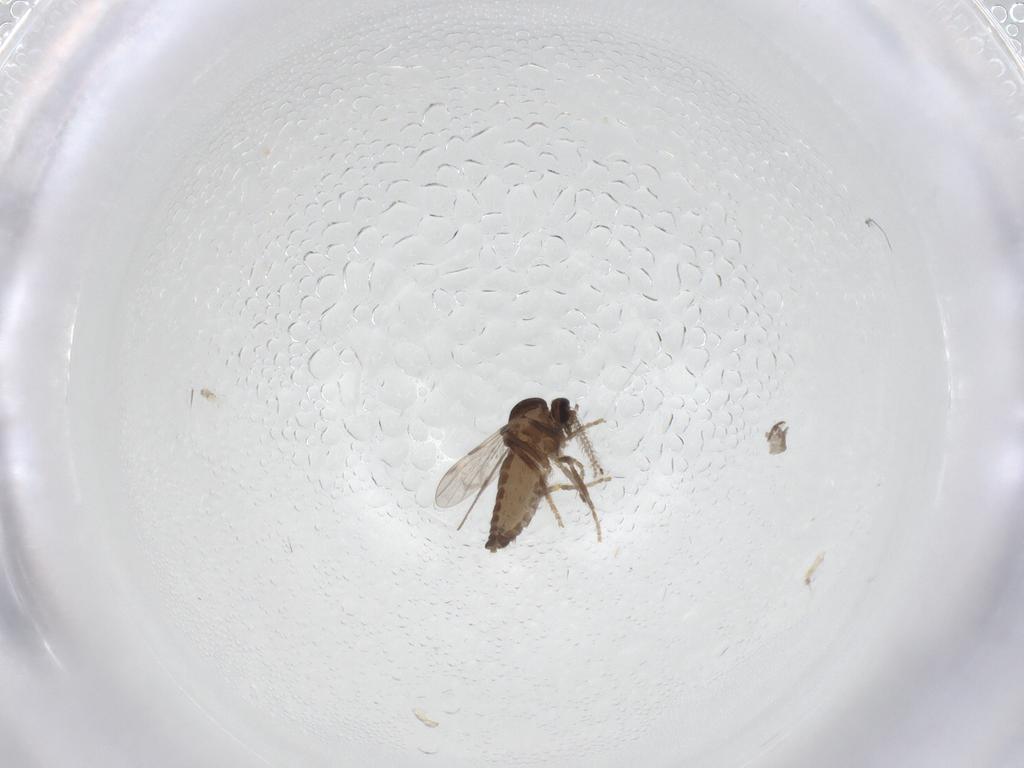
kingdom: Animalia
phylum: Arthropoda
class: Insecta
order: Diptera
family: Ceratopogonidae
